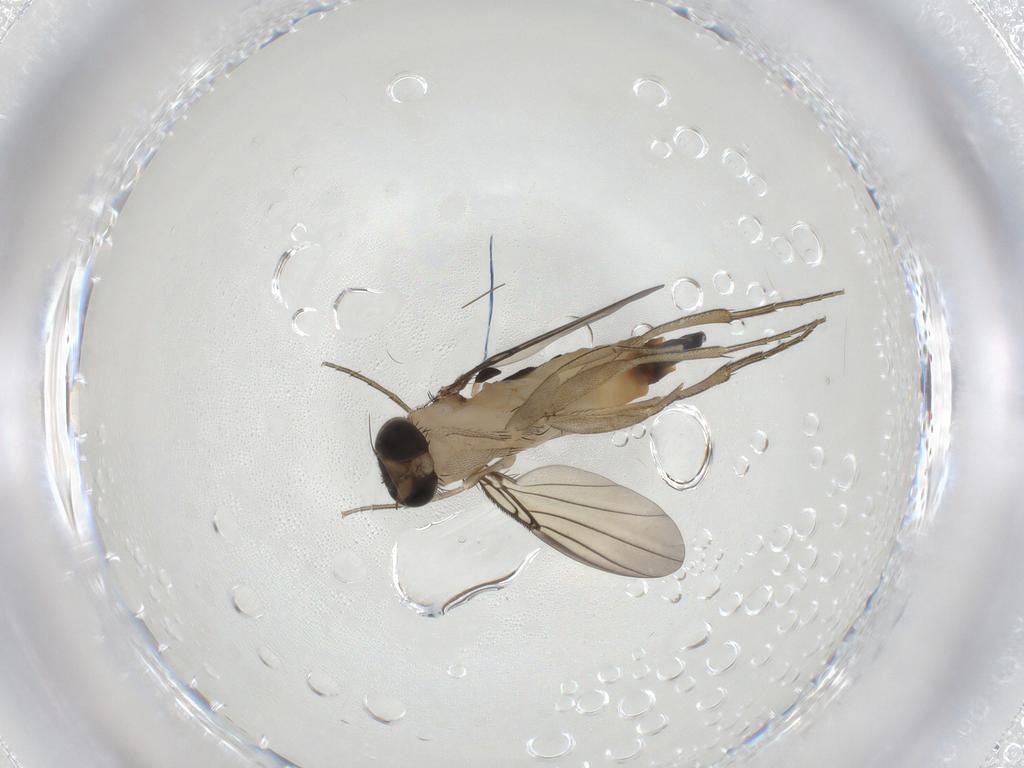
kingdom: Animalia
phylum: Arthropoda
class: Insecta
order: Diptera
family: Phoridae
